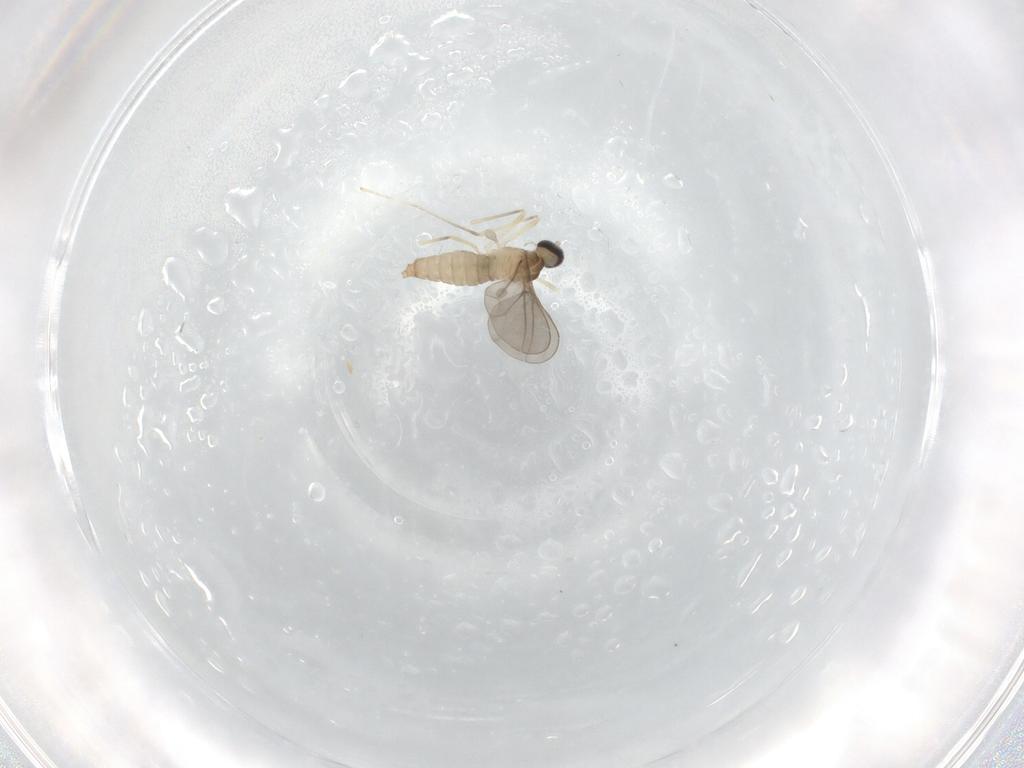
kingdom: Animalia
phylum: Arthropoda
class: Insecta
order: Diptera
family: Cecidomyiidae
